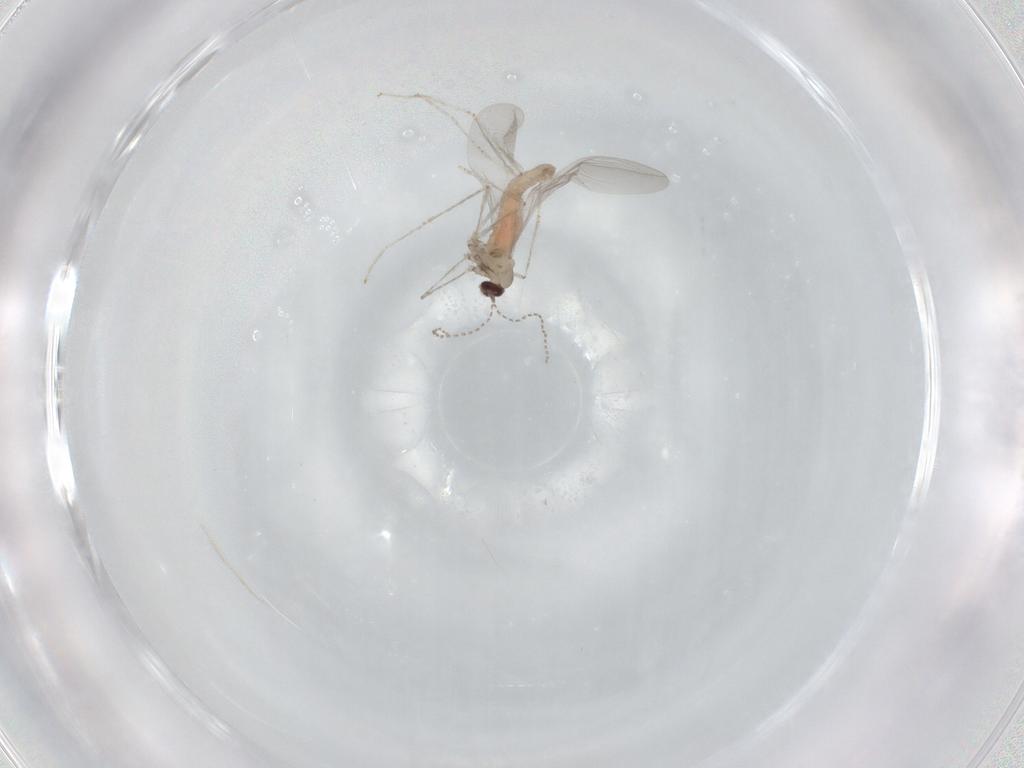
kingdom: Animalia
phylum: Arthropoda
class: Insecta
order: Diptera
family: Cecidomyiidae
